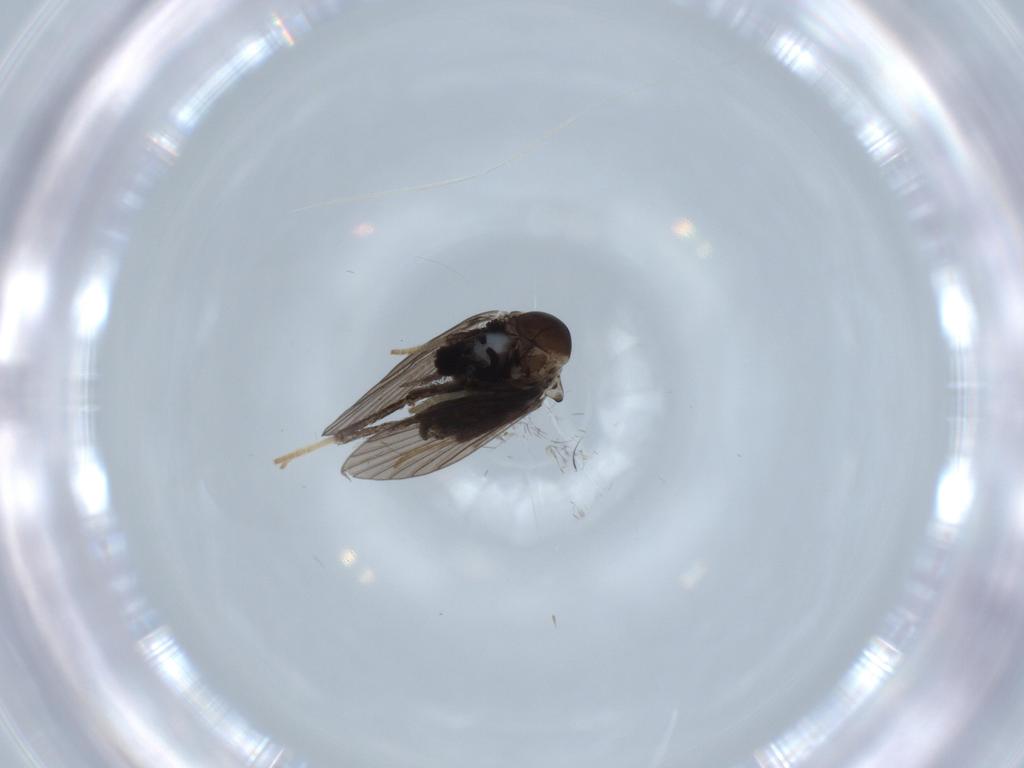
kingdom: Animalia
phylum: Arthropoda
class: Insecta
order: Diptera
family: Psychodidae
